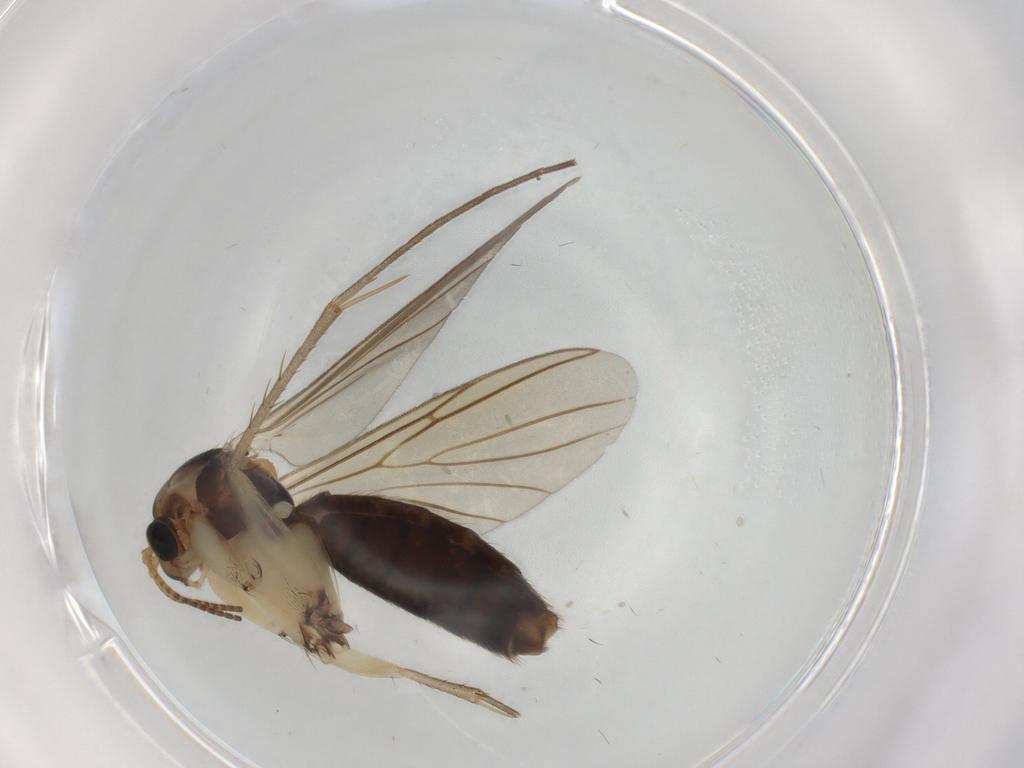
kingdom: Animalia
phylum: Arthropoda
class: Insecta
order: Diptera
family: Mycetophilidae
